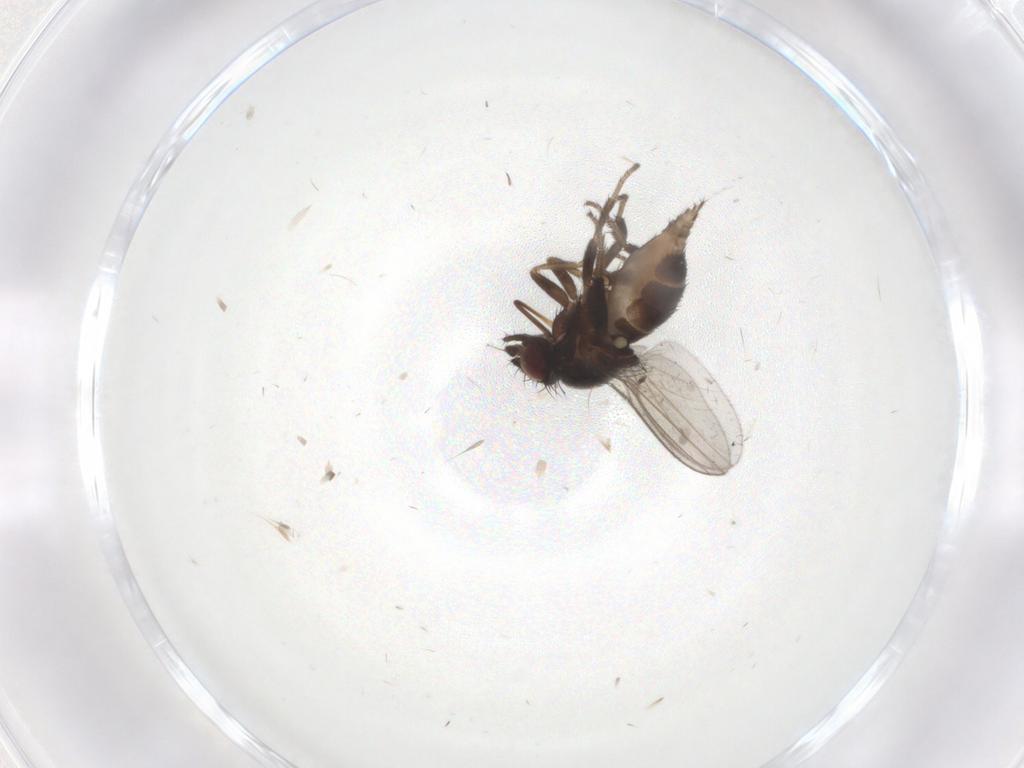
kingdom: Animalia
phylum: Arthropoda
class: Insecta
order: Diptera
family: Milichiidae
